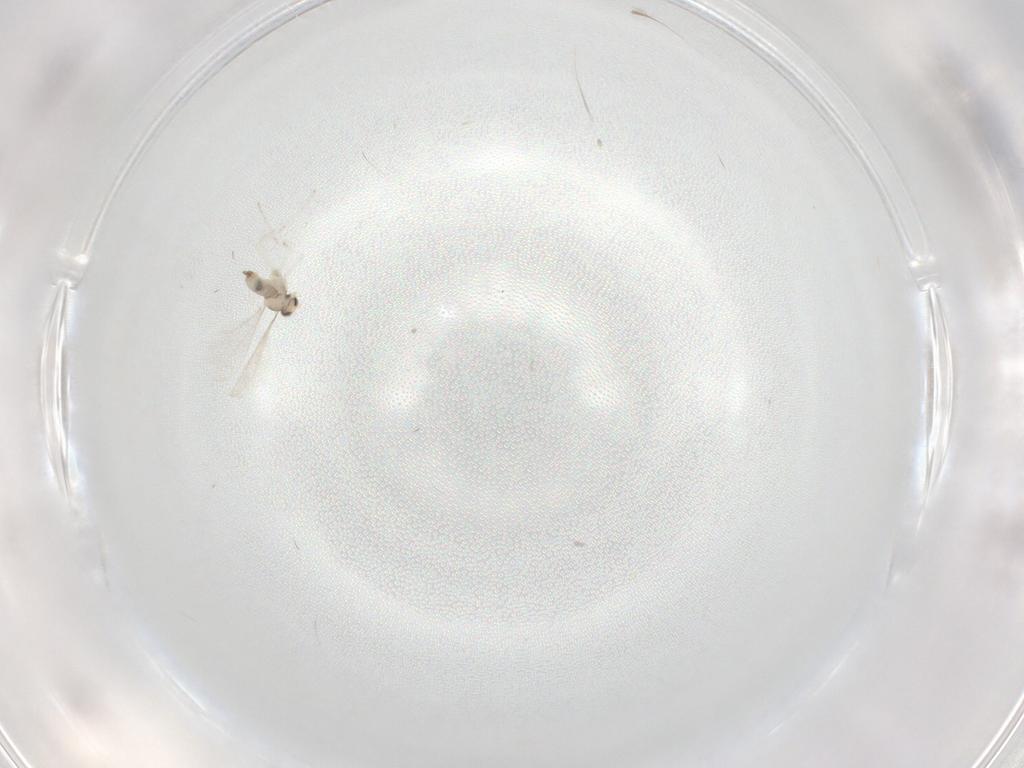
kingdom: Animalia
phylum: Arthropoda
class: Insecta
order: Diptera
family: Cecidomyiidae
